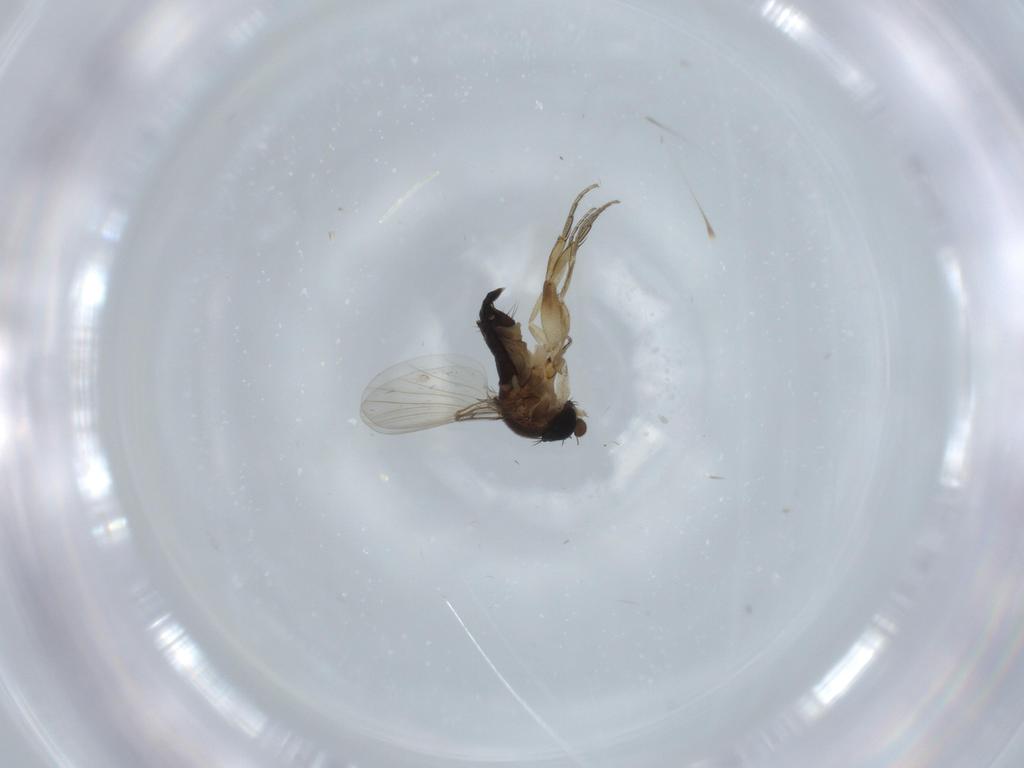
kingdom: Animalia
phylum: Arthropoda
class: Insecta
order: Diptera
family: Phoridae
